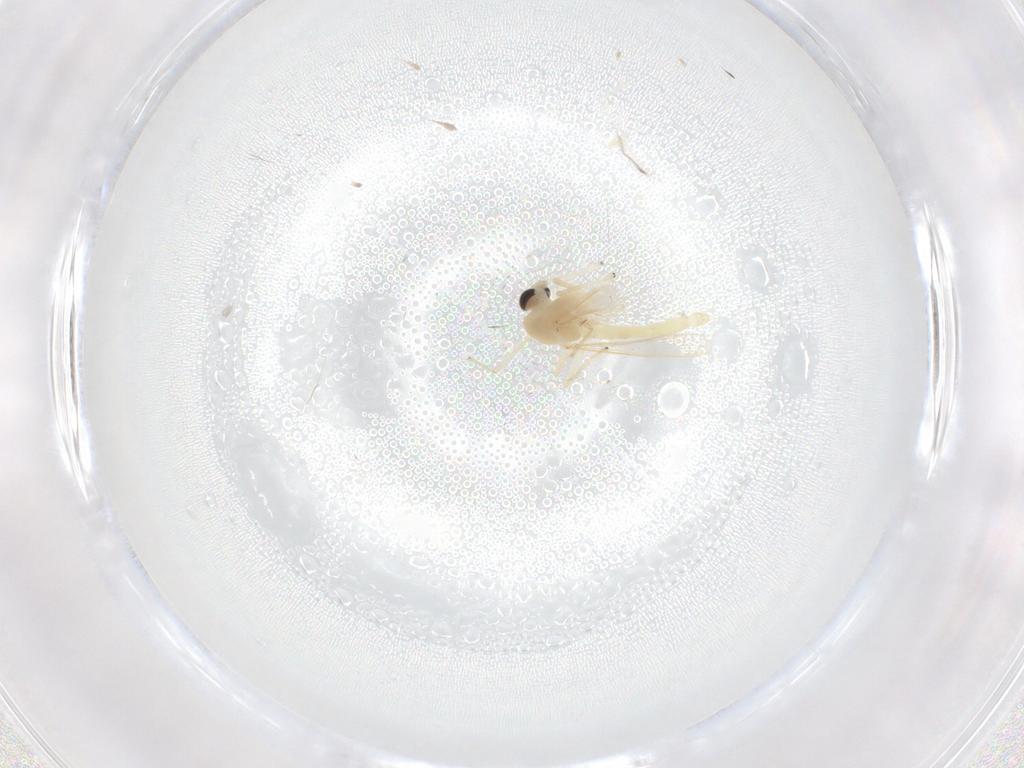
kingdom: Animalia
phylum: Arthropoda
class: Insecta
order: Diptera
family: Cecidomyiidae
